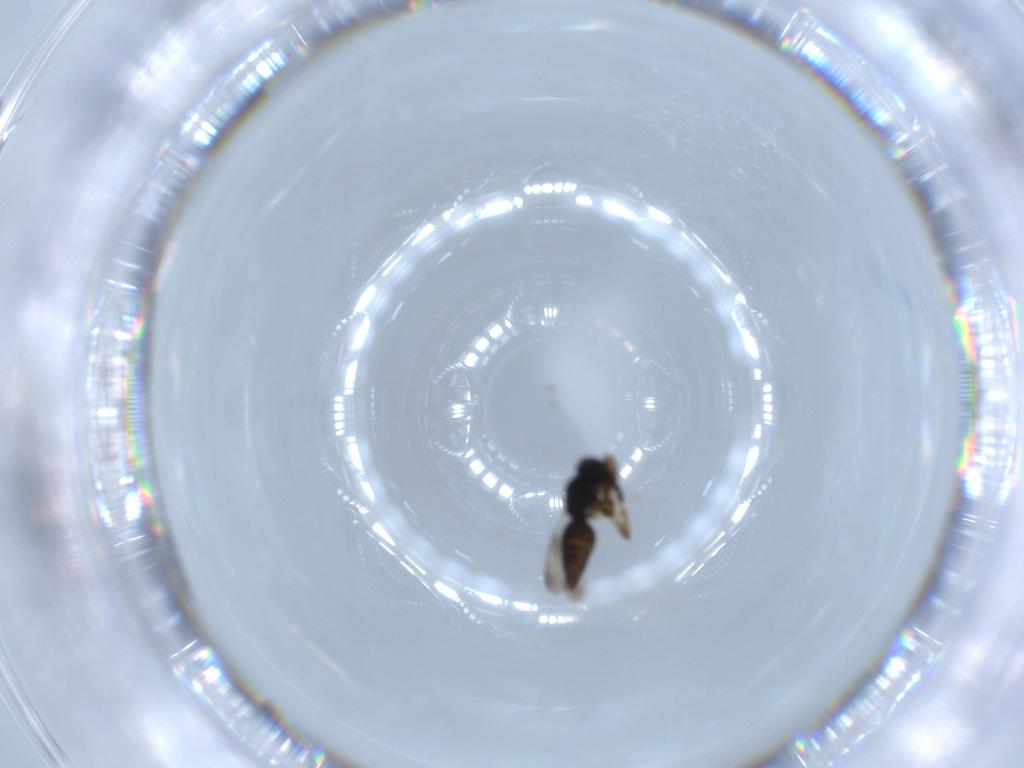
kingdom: Animalia
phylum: Arthropoda
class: Insecta
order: Hymenoptera
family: Ceraphronidae
